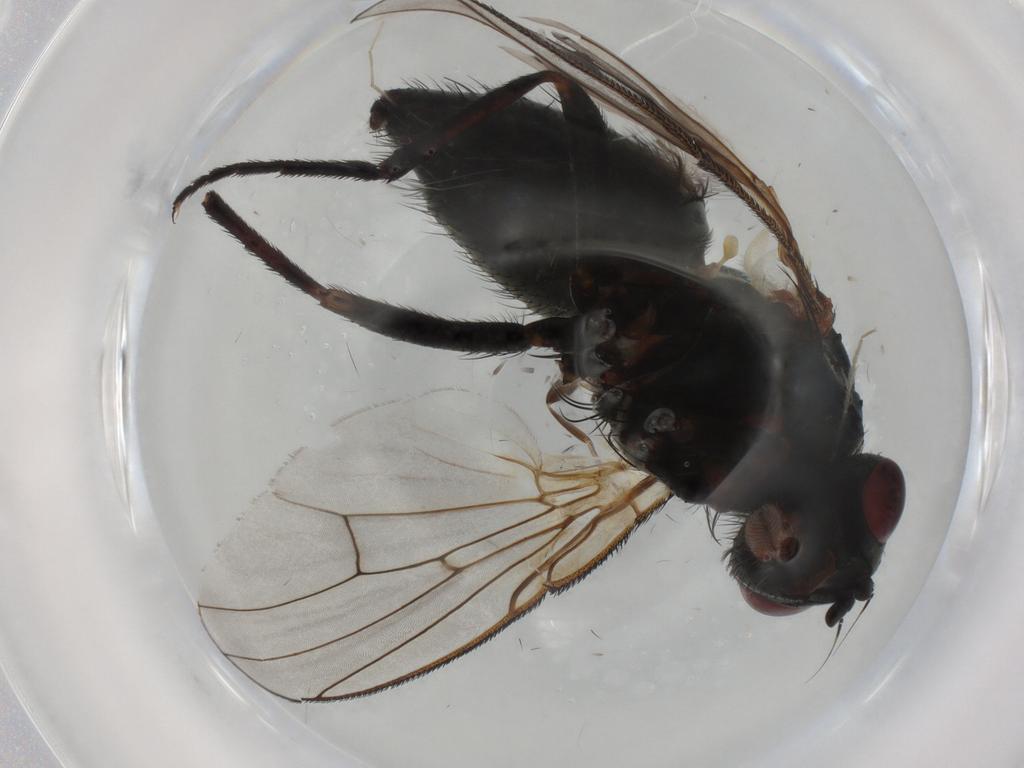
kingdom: Animalia
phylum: Arthropoda
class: Insecta
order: Diptera
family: Muscidae
